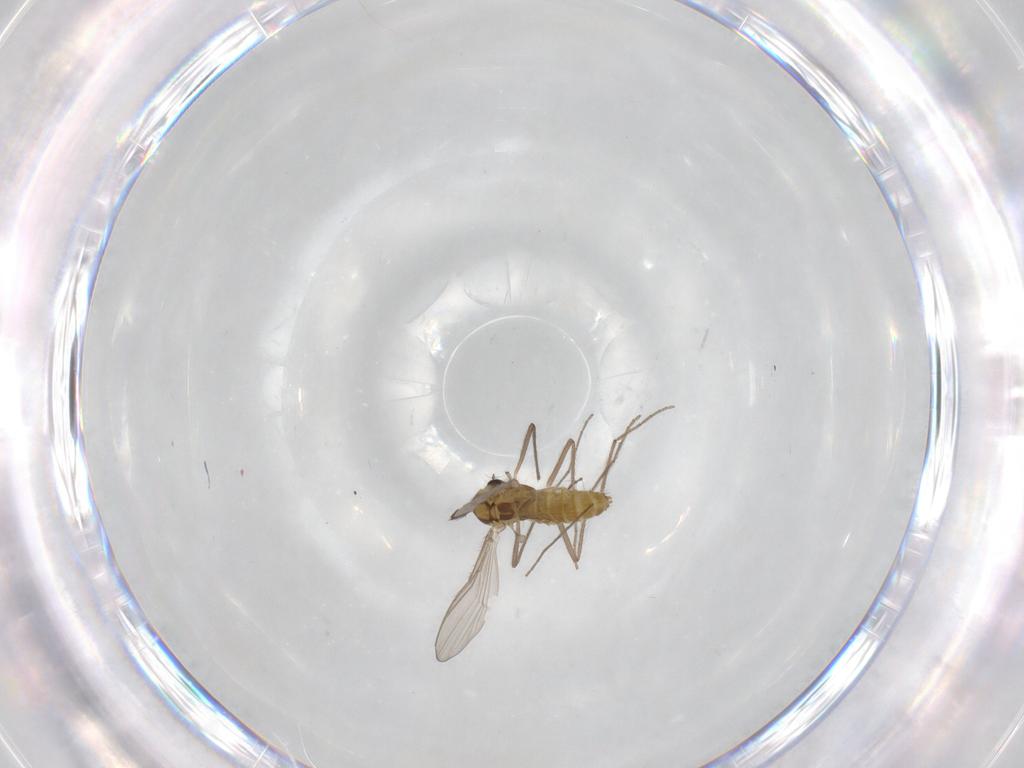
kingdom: Animalia
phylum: Arthropoda
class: Insecta
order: Diptera
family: Chironomidae
